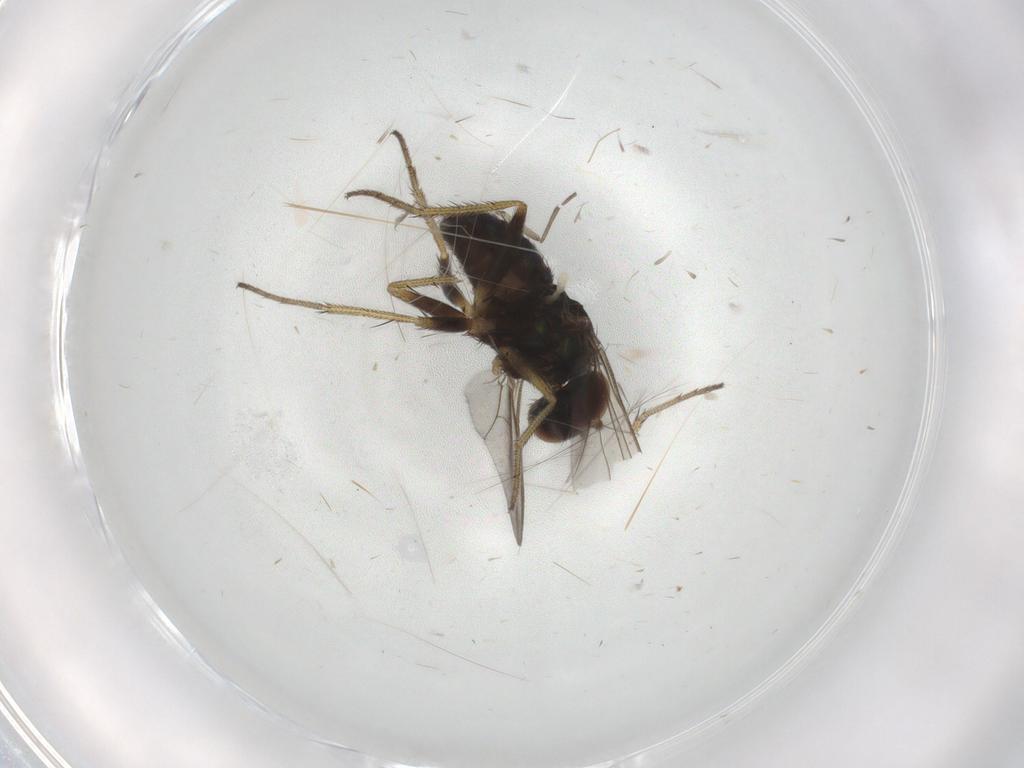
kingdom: Animalia
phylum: Arthropoda
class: Insecta
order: Diptera
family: Dolichopodidae
